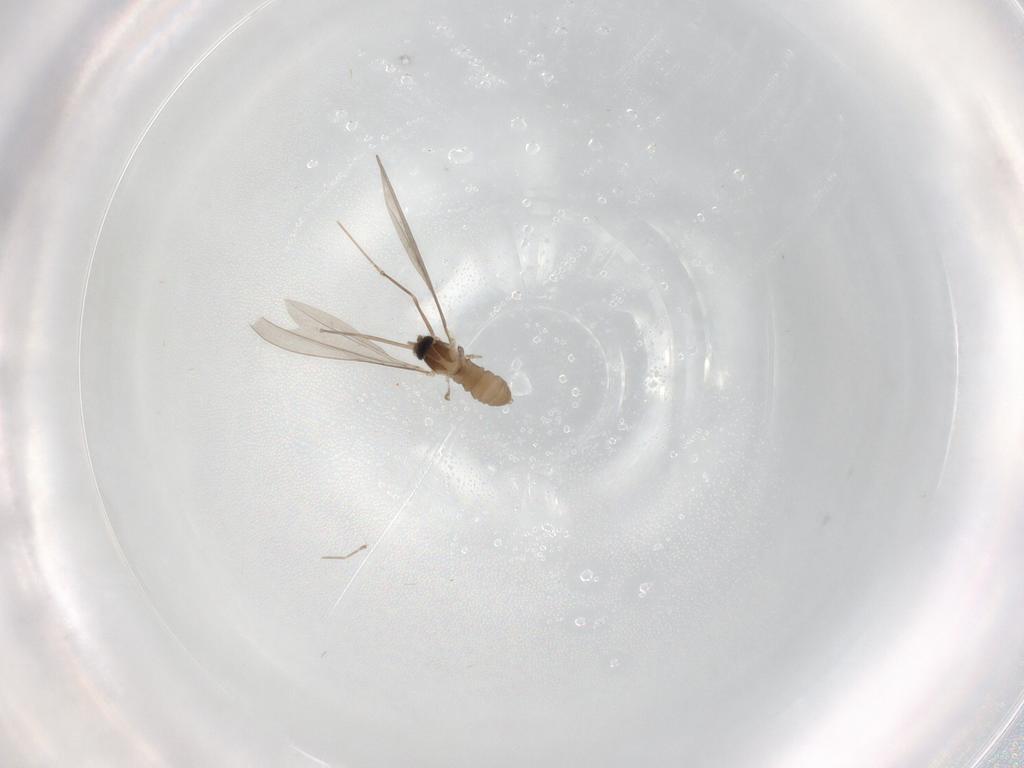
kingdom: Animalia
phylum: Arthropoda
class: Insecta
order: Diptera
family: Cecidomyiidae
